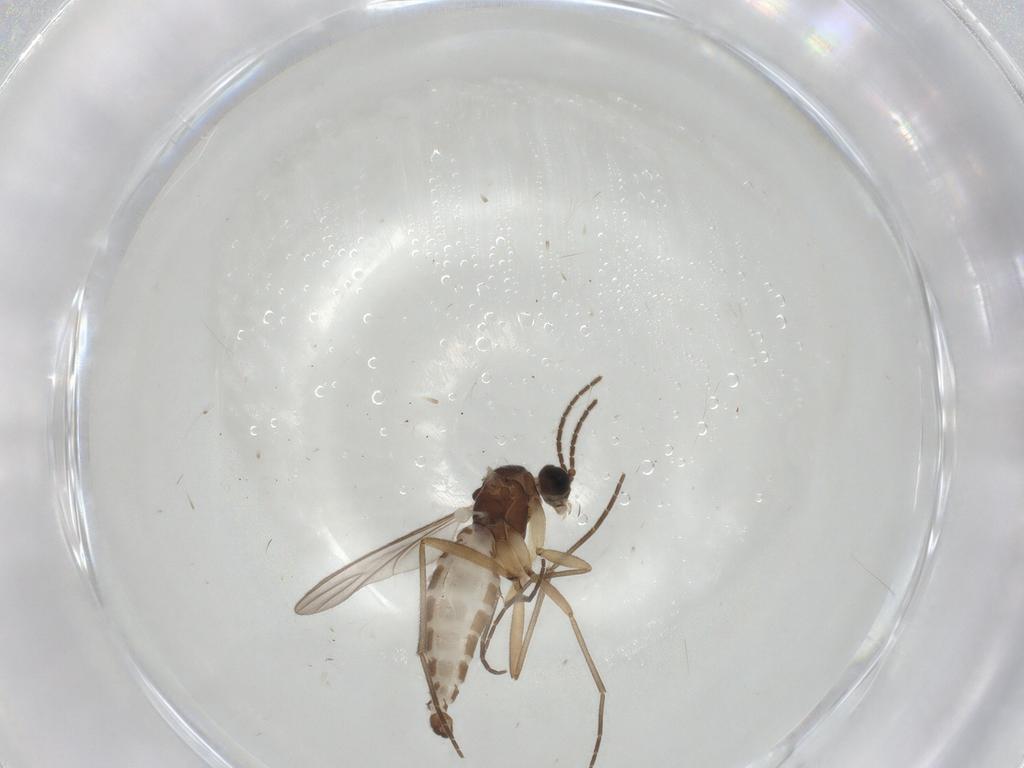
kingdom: Animalia
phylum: Arthropoda
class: Insecta
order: Diptera
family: Sciaridae
